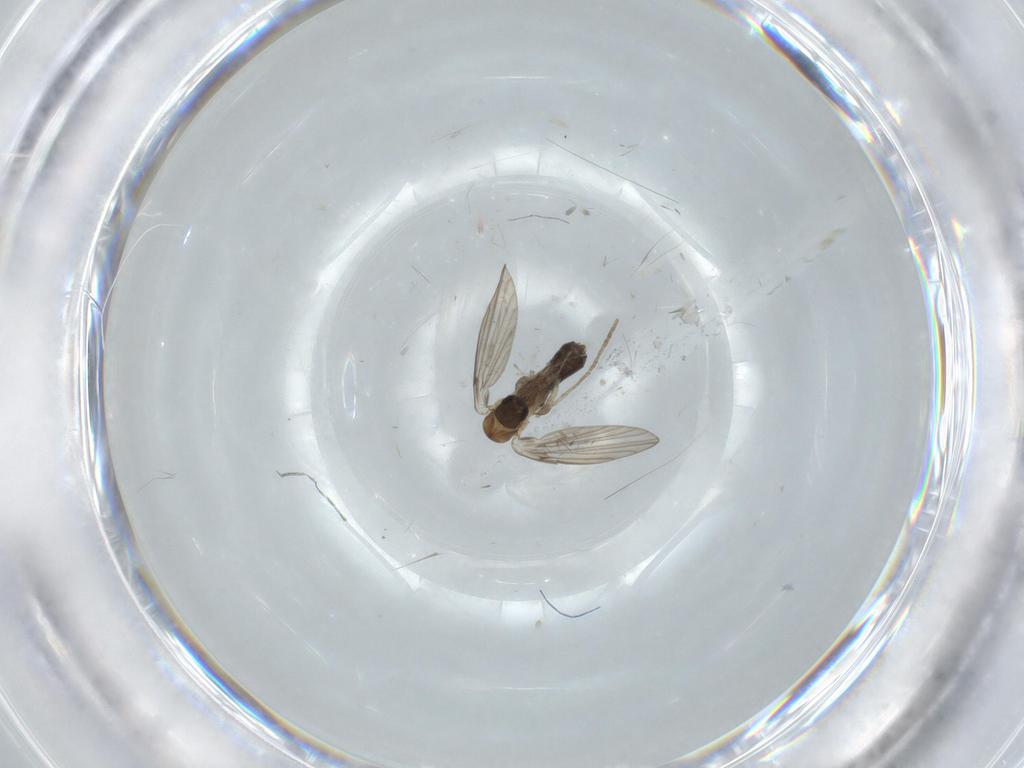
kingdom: Animalia
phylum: Arthropoda
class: Insecta
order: Diptera
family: Psychodidae
